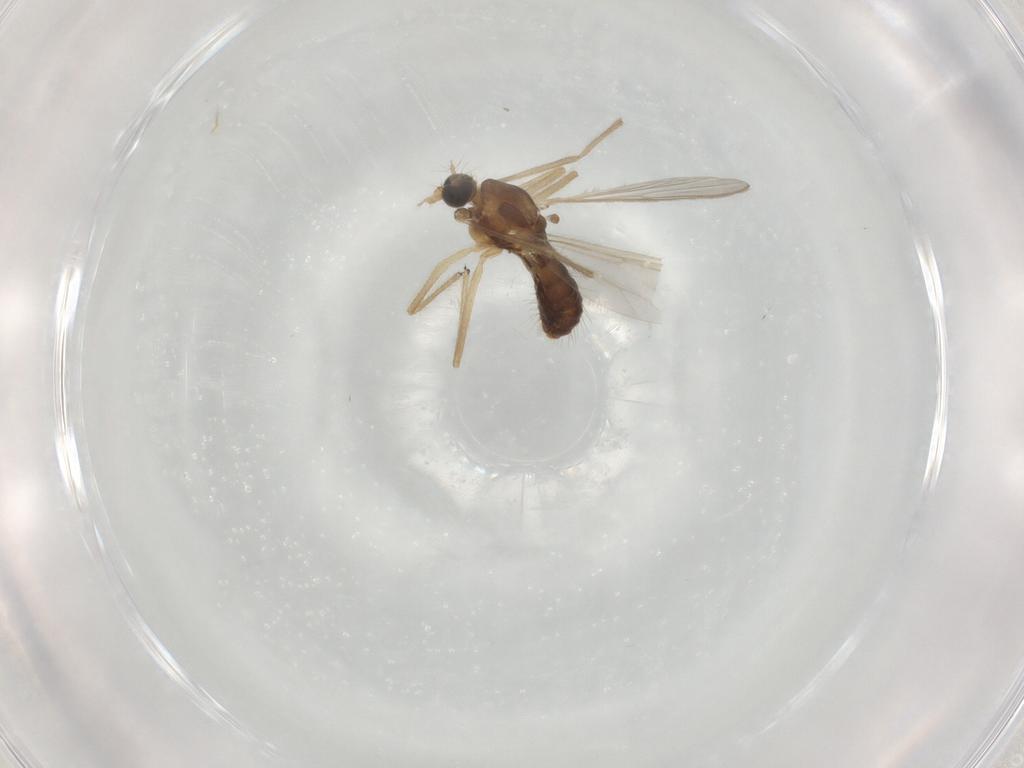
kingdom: Animalia
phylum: Arthropoda
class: Insecta
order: Diptera
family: Chironomidae
